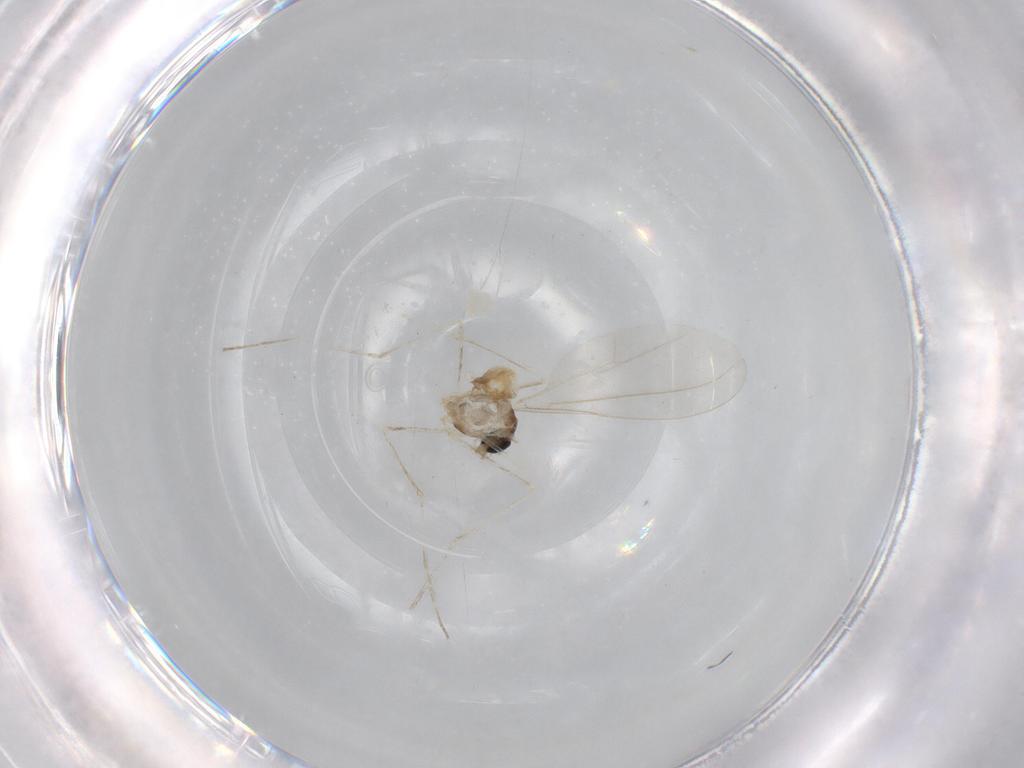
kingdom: Animalia
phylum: Arthropoda
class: Insecta
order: Diptera
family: Cecidomyiidae
